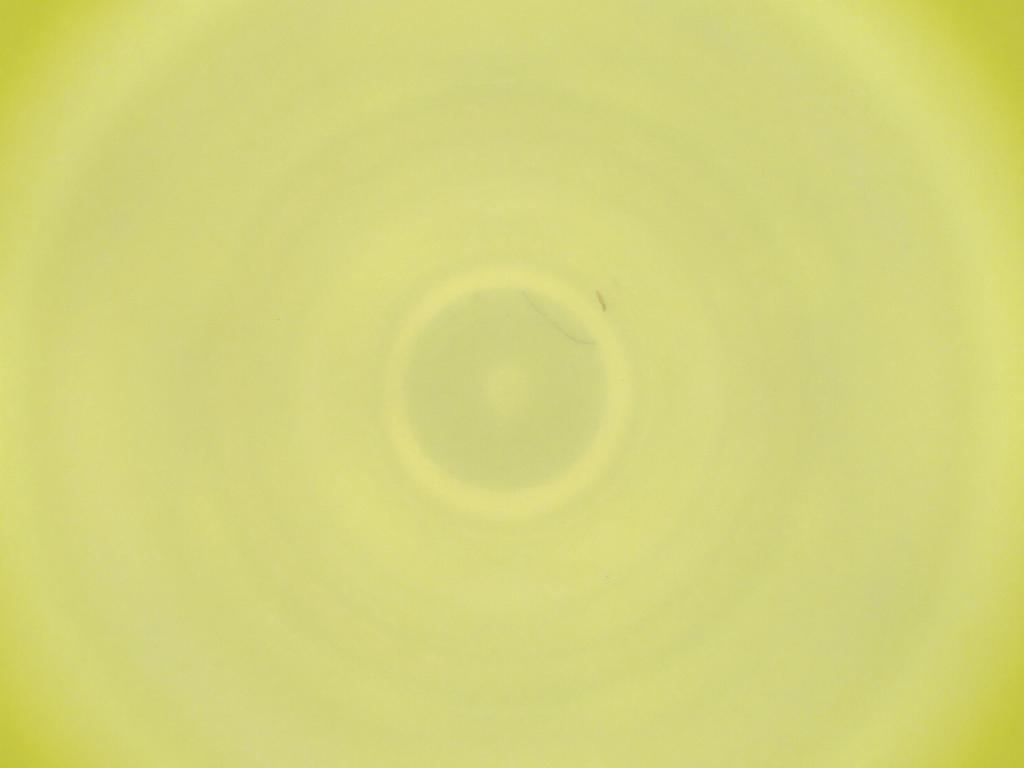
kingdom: Animalia
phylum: Arthropoda
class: Insecta
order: Diptera
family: Cecidomyiidae
